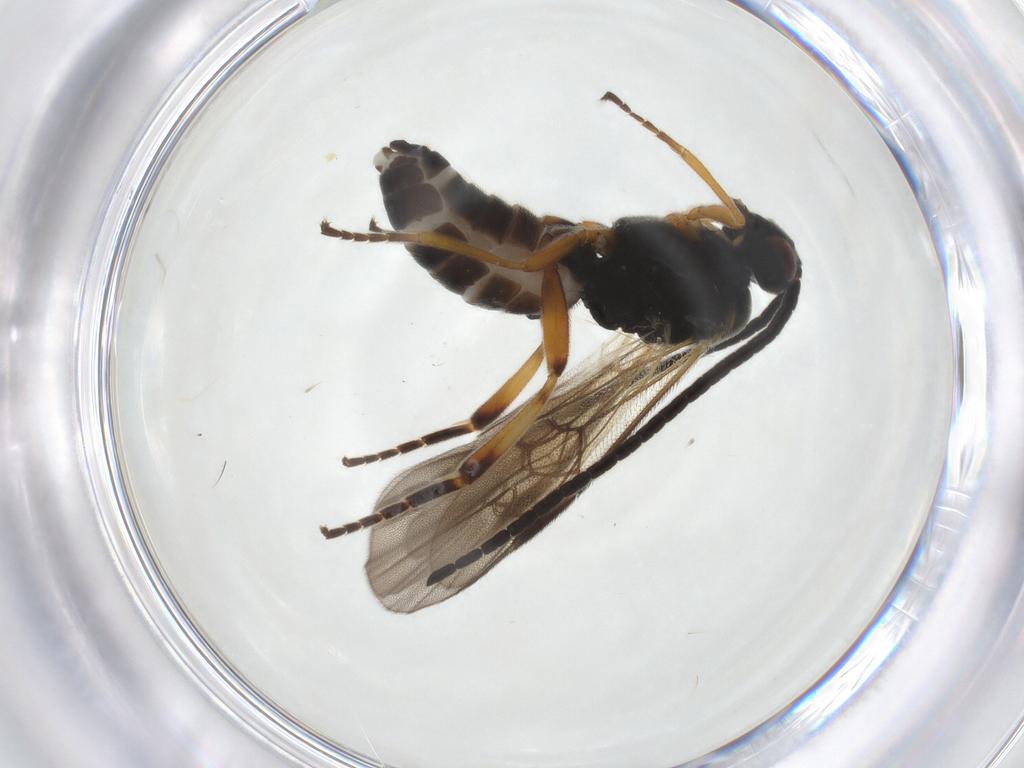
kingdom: Animalia
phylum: Arthropoda
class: Insecta
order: Hymenoptera
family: Braconidae
